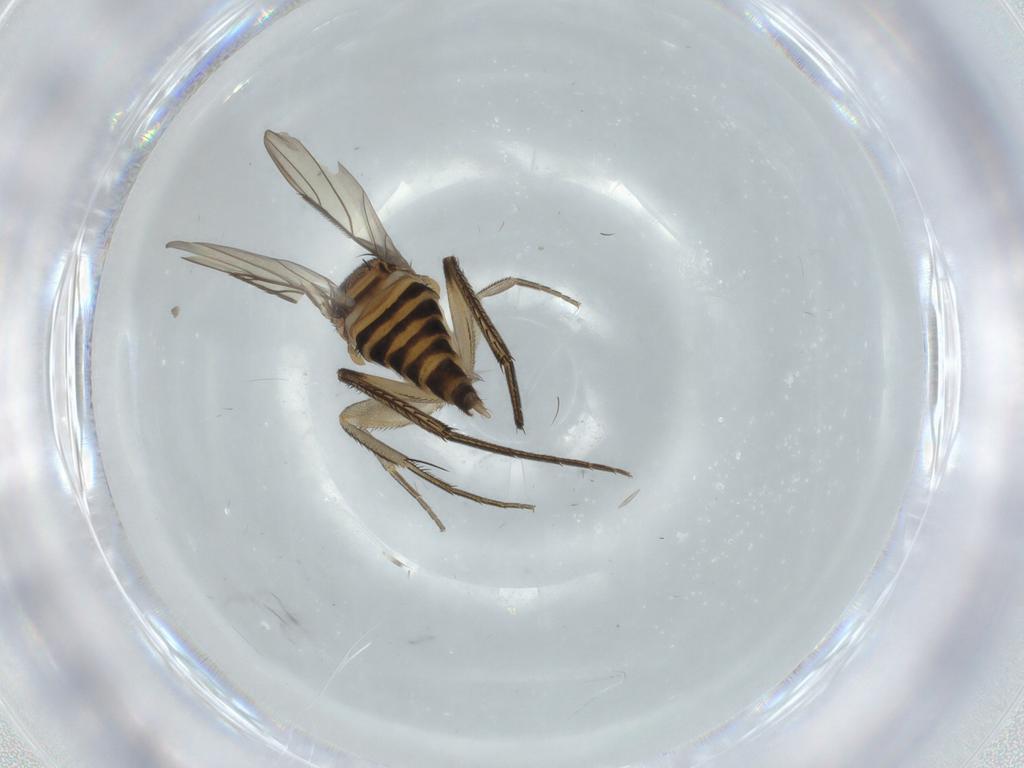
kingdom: Animalia
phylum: Arthropoda
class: Insecta
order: Diptera
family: Phoridae
